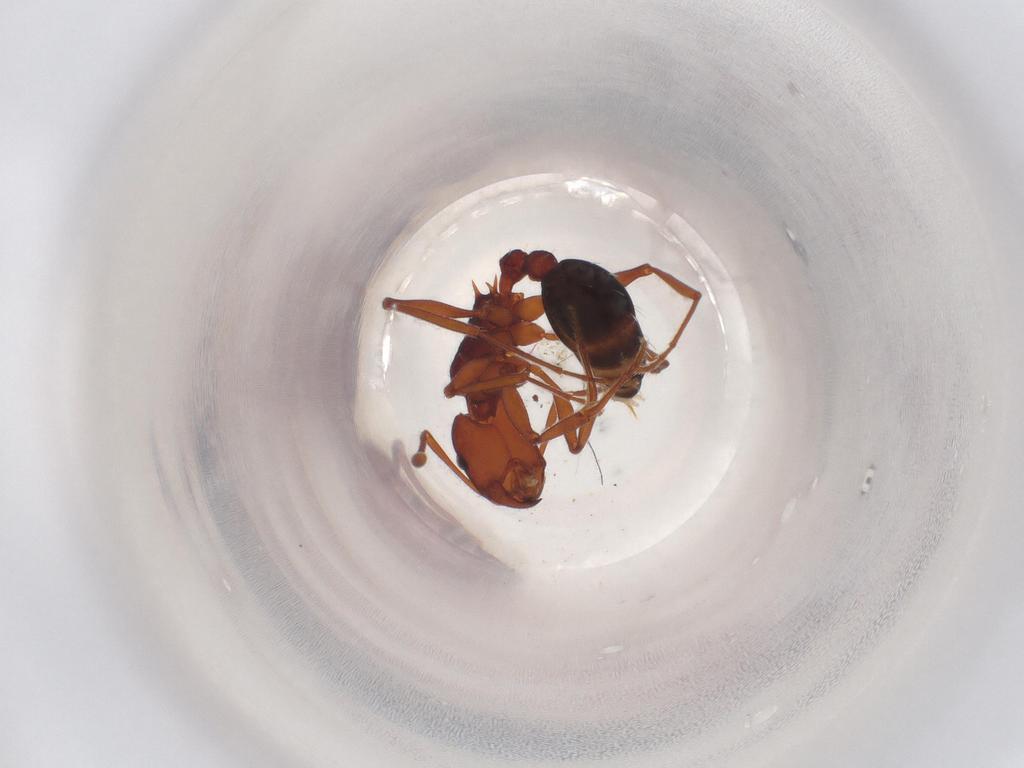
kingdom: Animalia
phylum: Arthropoda
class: Insecta
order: Hymenoptera
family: Formicidae
